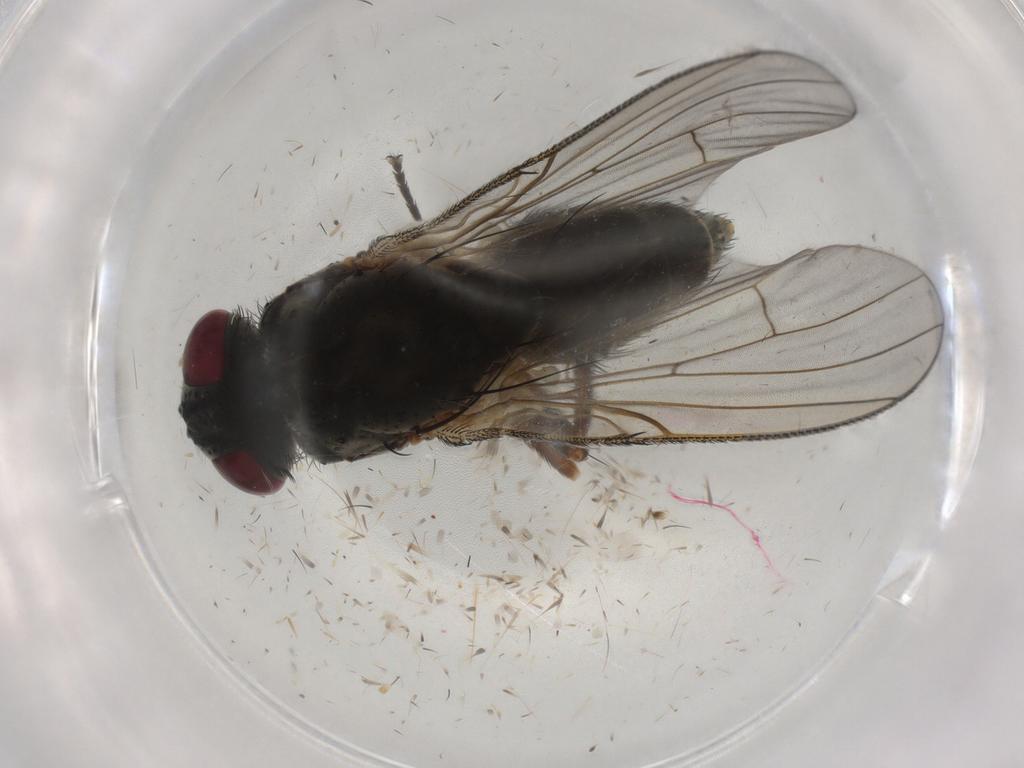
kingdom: Animalia
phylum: Arthropoda
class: Insecta
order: Diptera
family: Muscidae
